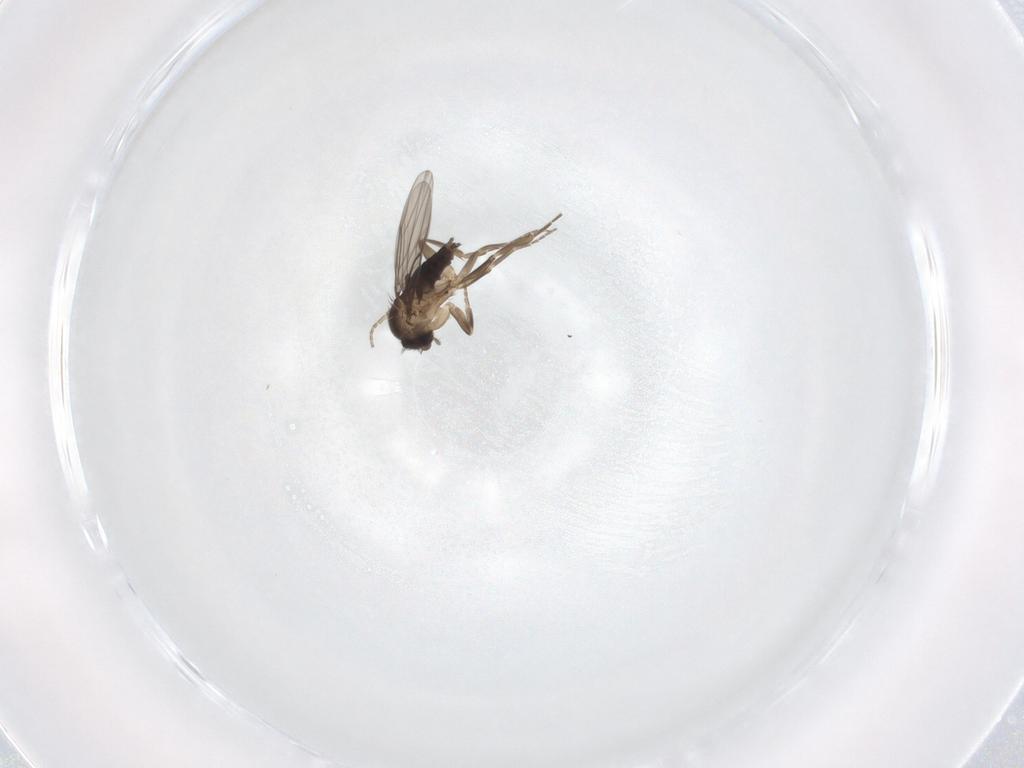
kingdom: Animalia
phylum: Arthropoda
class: Insecta
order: Diptera
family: Phoridae
